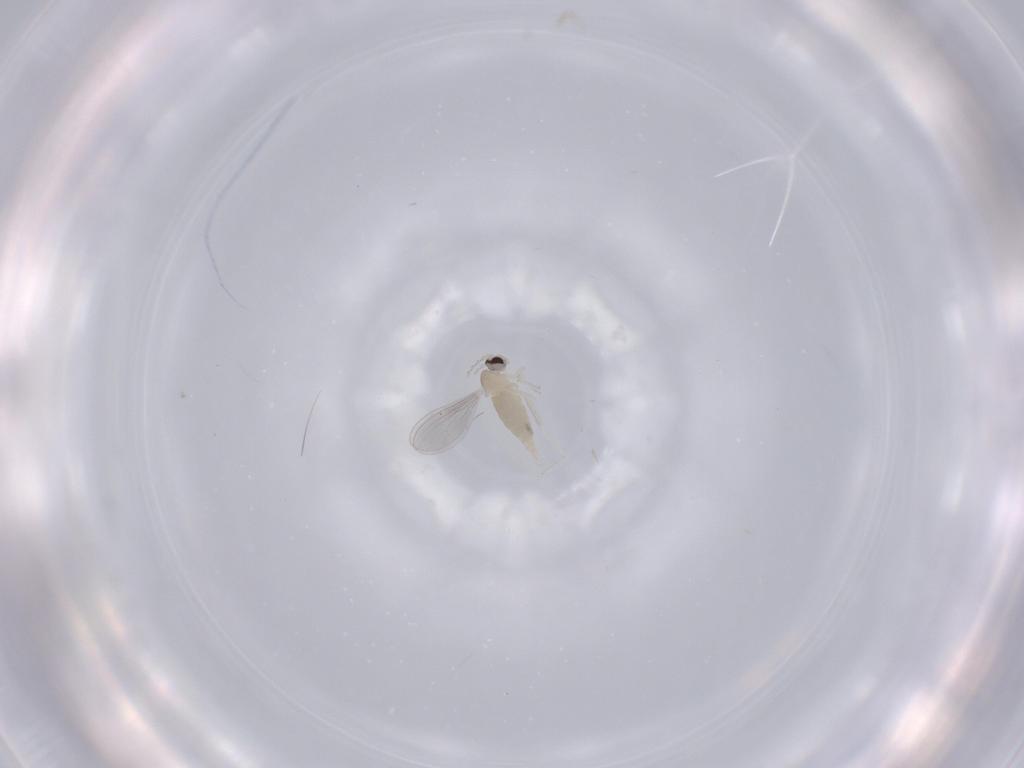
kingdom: Animalia
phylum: Arthropoda
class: Insecta
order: Diptera
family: Cecidomyiidae
